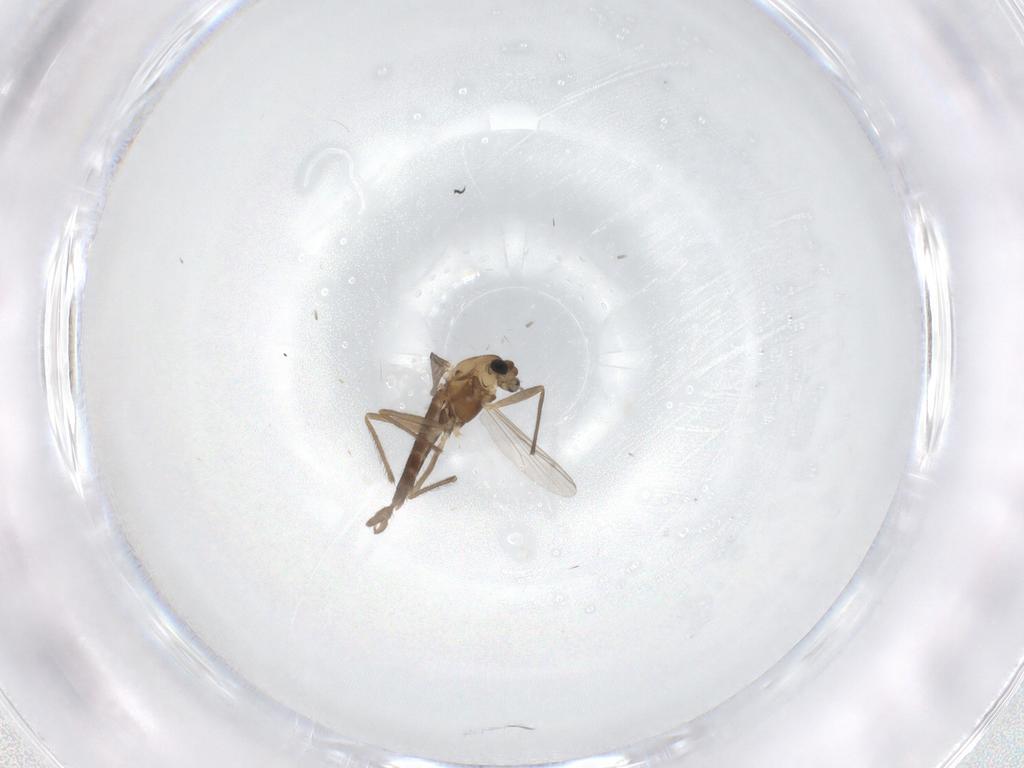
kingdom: Animalia
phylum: Arthropoda
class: Insecta
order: Diptera
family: Chironomidae
